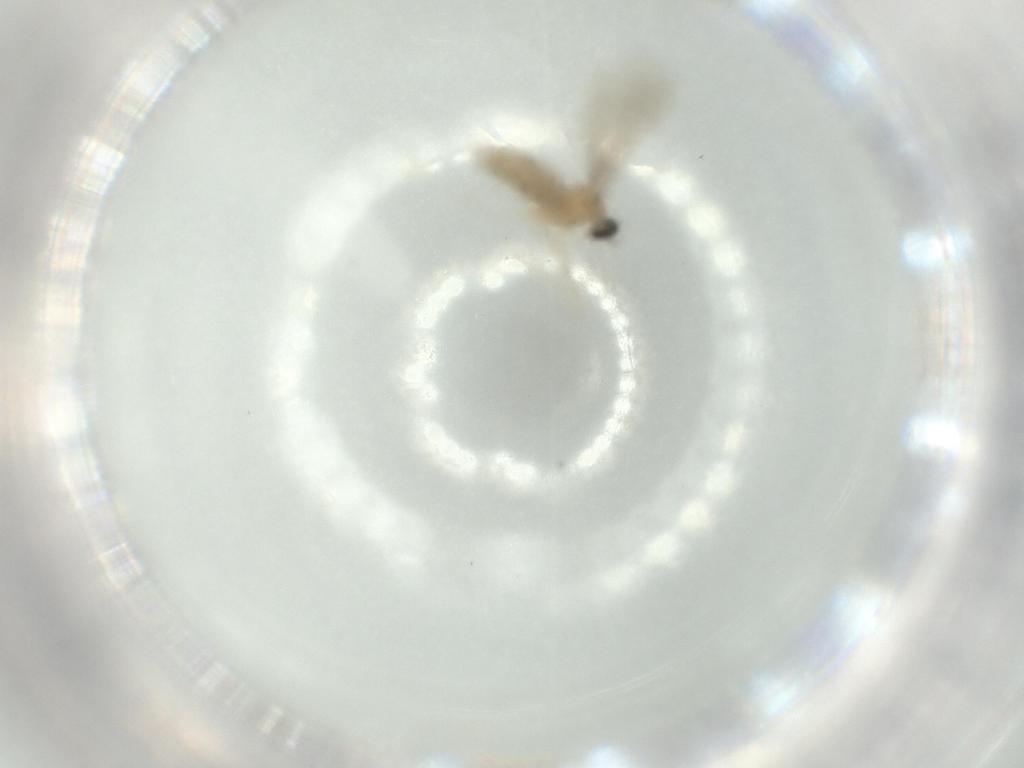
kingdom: Animalia
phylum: Arthropoda
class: Insecta
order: Diptera
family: Cecidomyiidae
